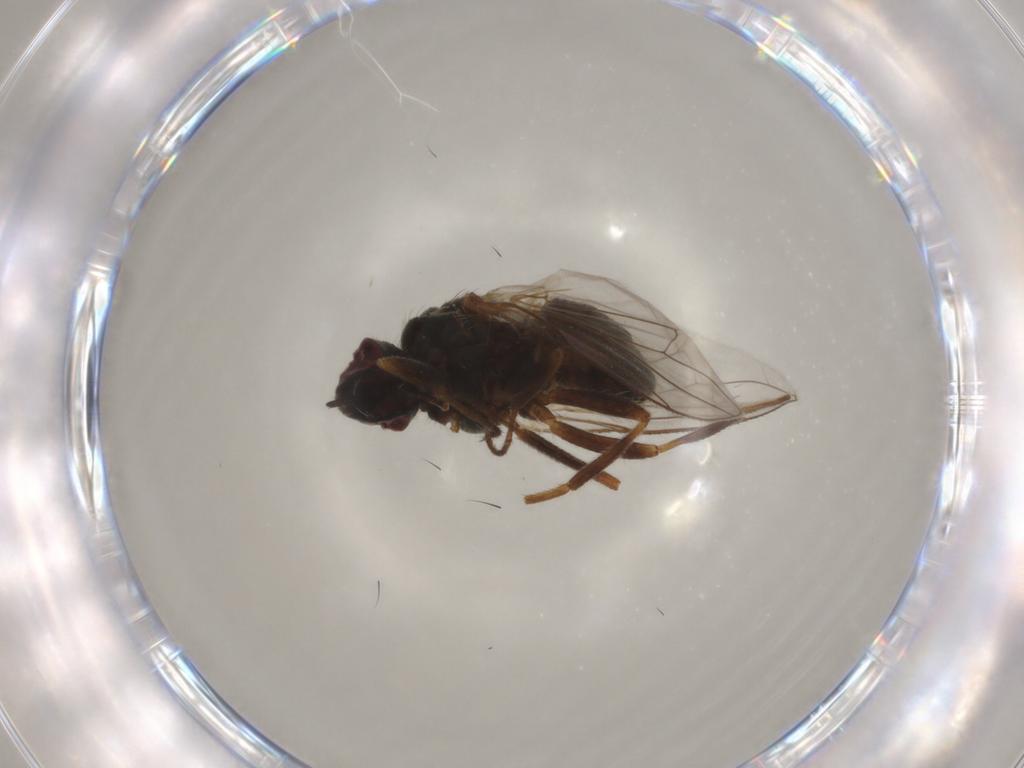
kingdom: Animalia
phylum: Arthropoda
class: Insecta
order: Diptera
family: Muscidae
